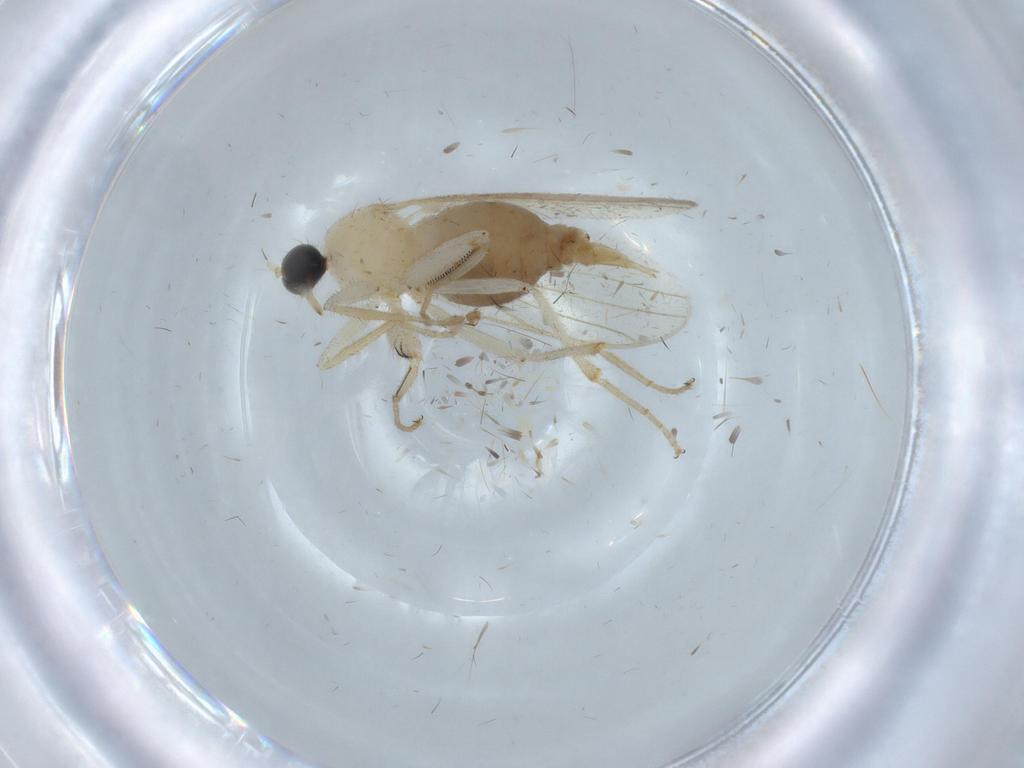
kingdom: Animalia
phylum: Arthropoda
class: Insecta
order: Diptera
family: Hybotidae
